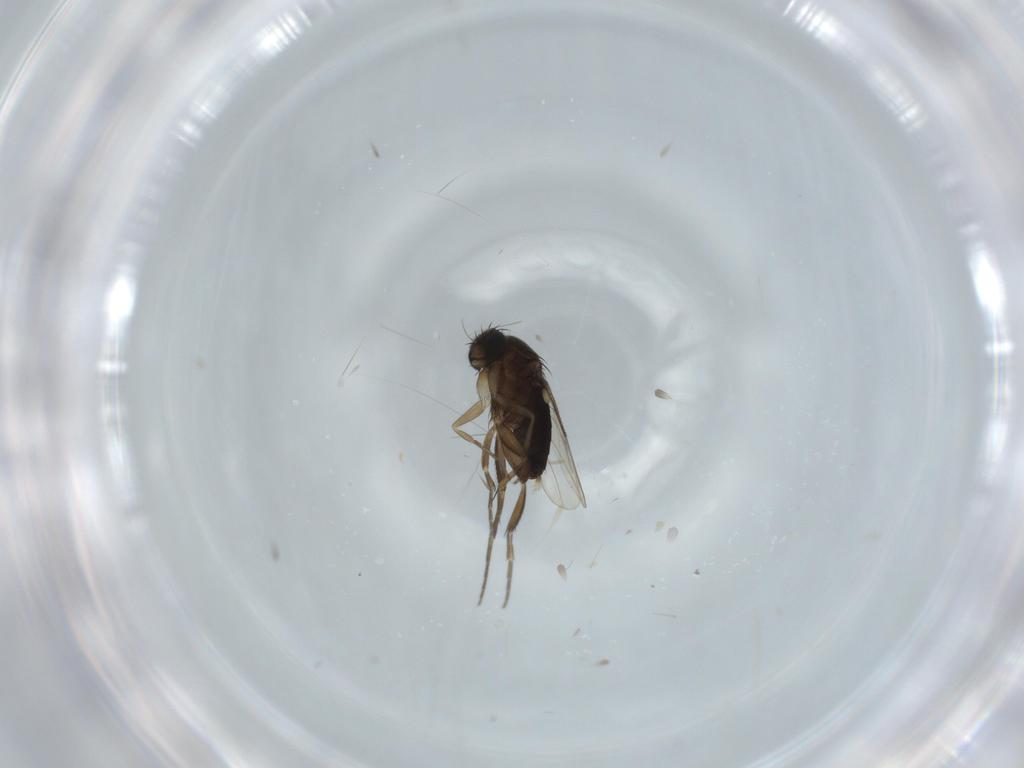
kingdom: Animalia
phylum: Arthropoda
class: Insecta
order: Diptera
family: Phoridae
